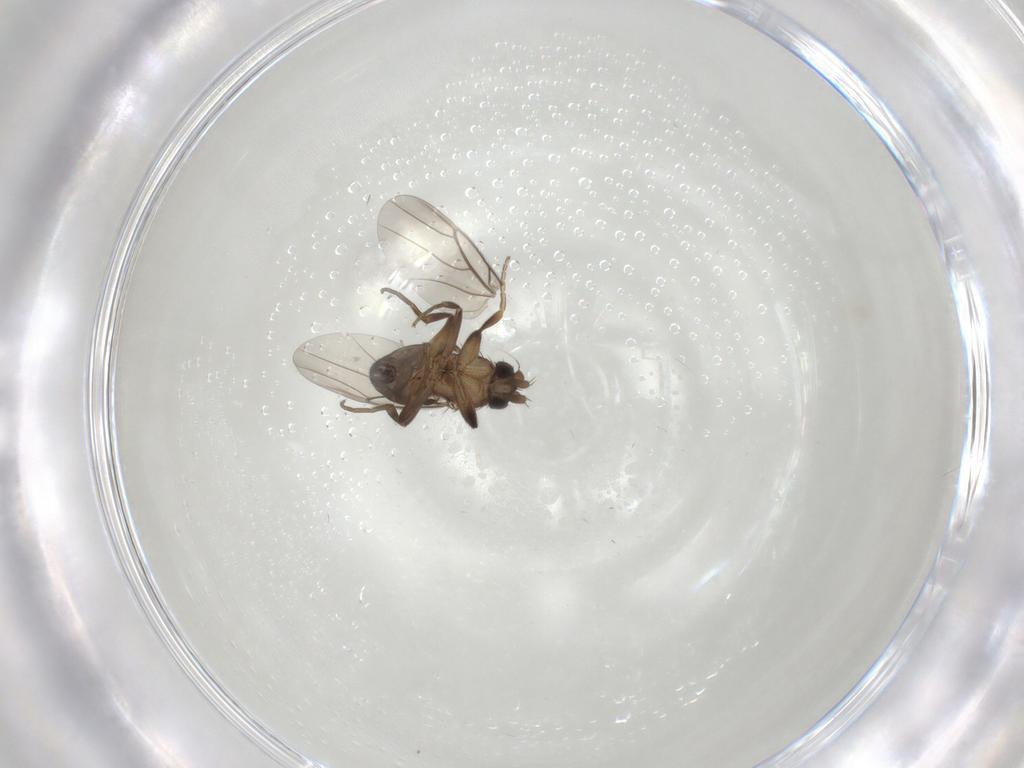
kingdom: Animalia
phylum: Arthropoda
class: Insecta
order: Diptera
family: Phoridae
